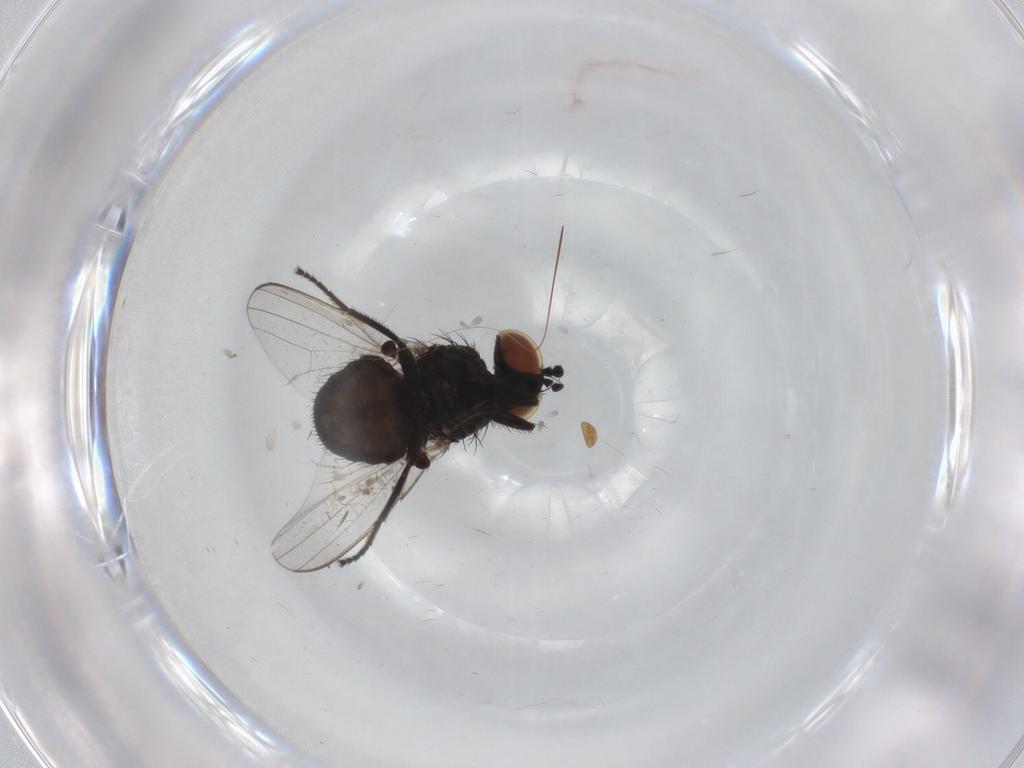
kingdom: Animalia
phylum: Arthropoda
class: Insecta
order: Diptera
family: Milichiidae
